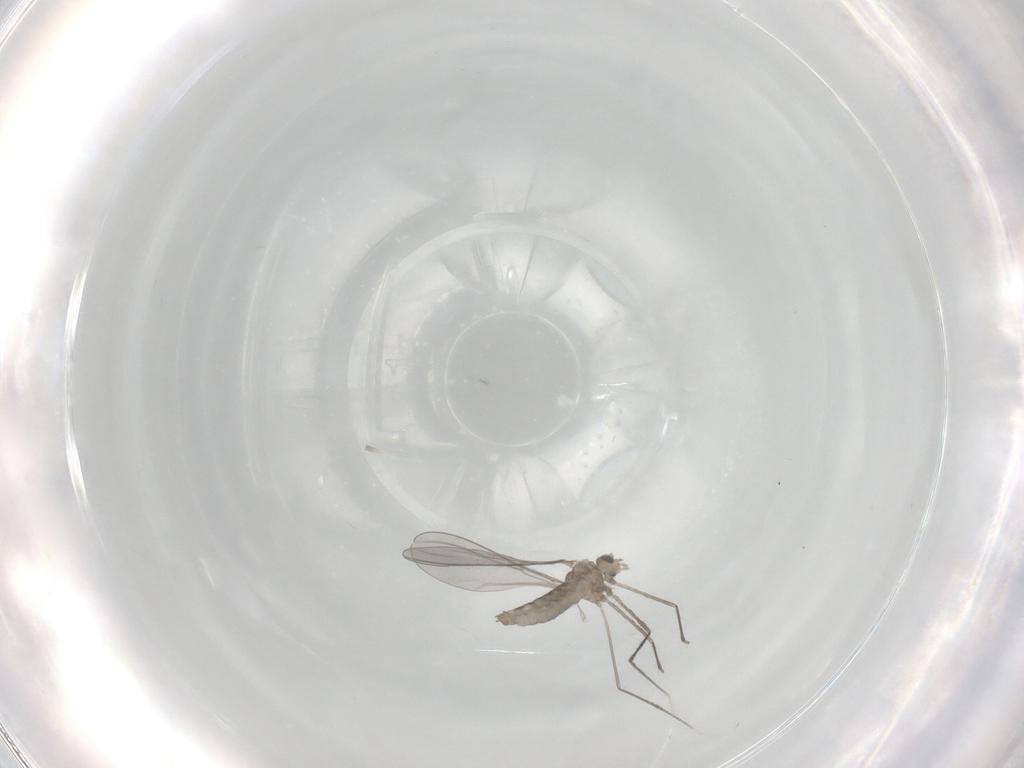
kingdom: Animalia
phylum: Arthropoda
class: Insecta
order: Diptera
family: Cecidomyiidae
